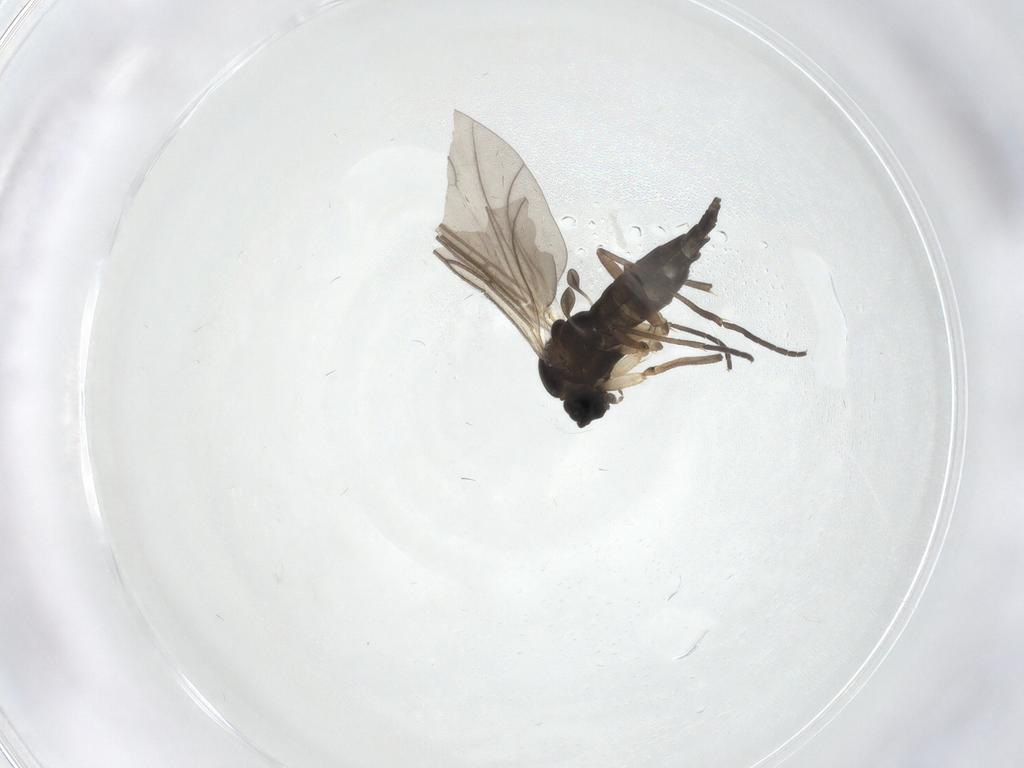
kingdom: Animalia
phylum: Arthropoda
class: Insecta
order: Diptera
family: Sciaridae
